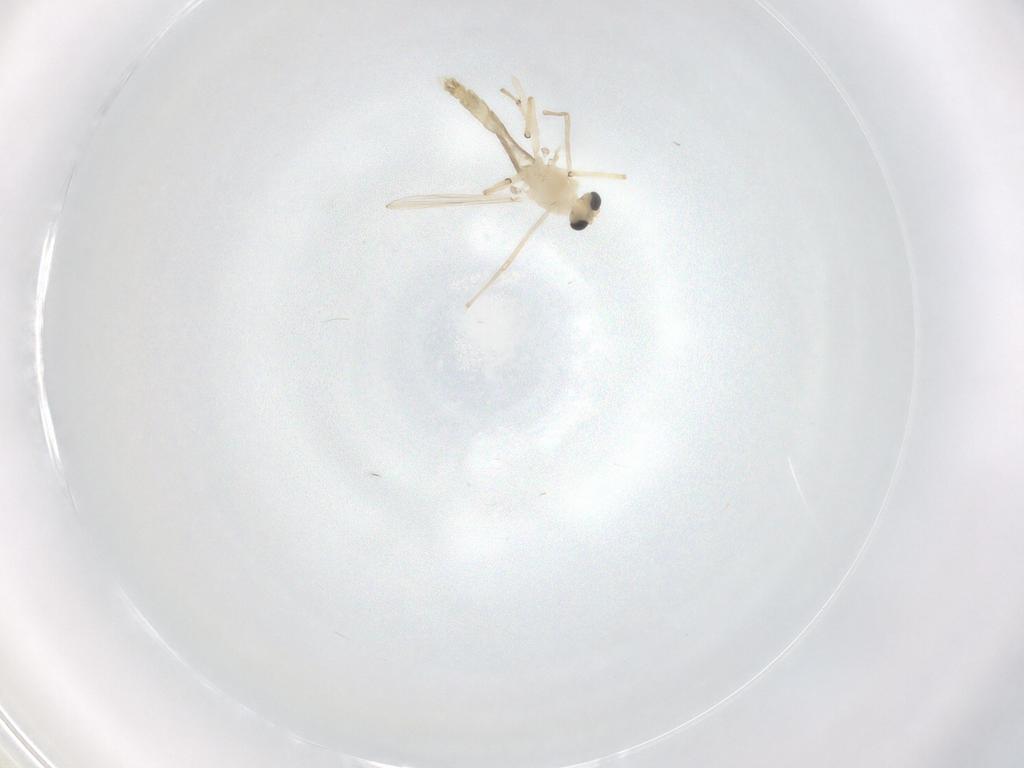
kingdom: Animalia
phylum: Arthropoda
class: Insecta
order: Diptera
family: Chironomidae
